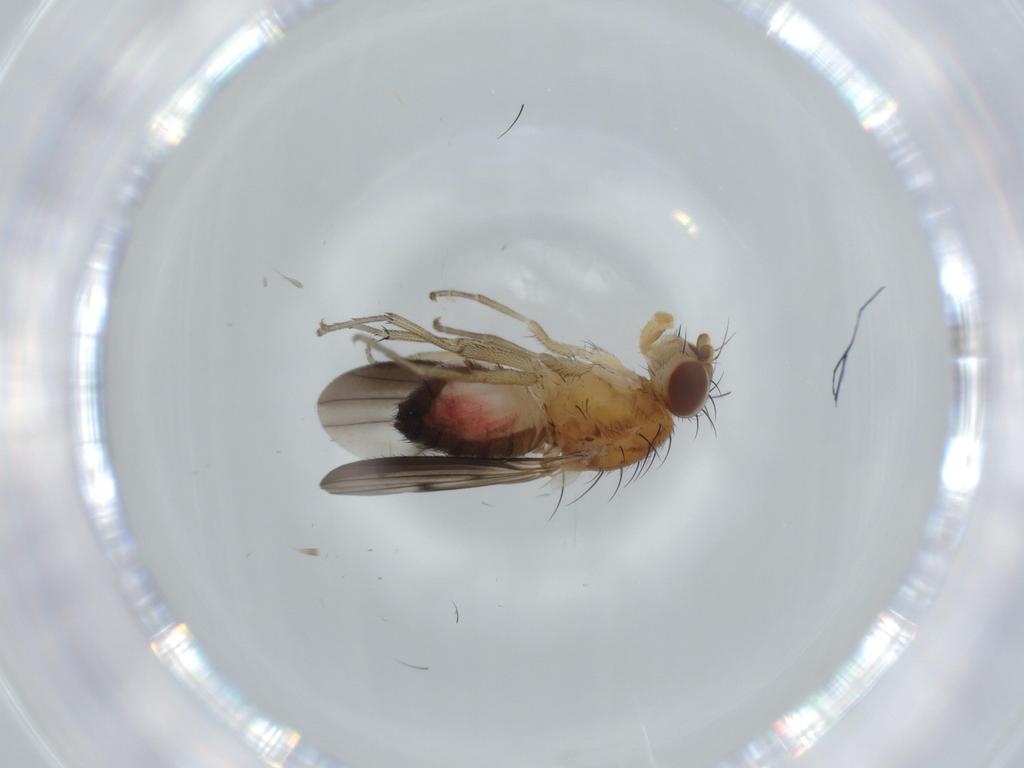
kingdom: Animalia
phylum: Arthropoda
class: Insecta
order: Diptera
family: Heleomyzidae
